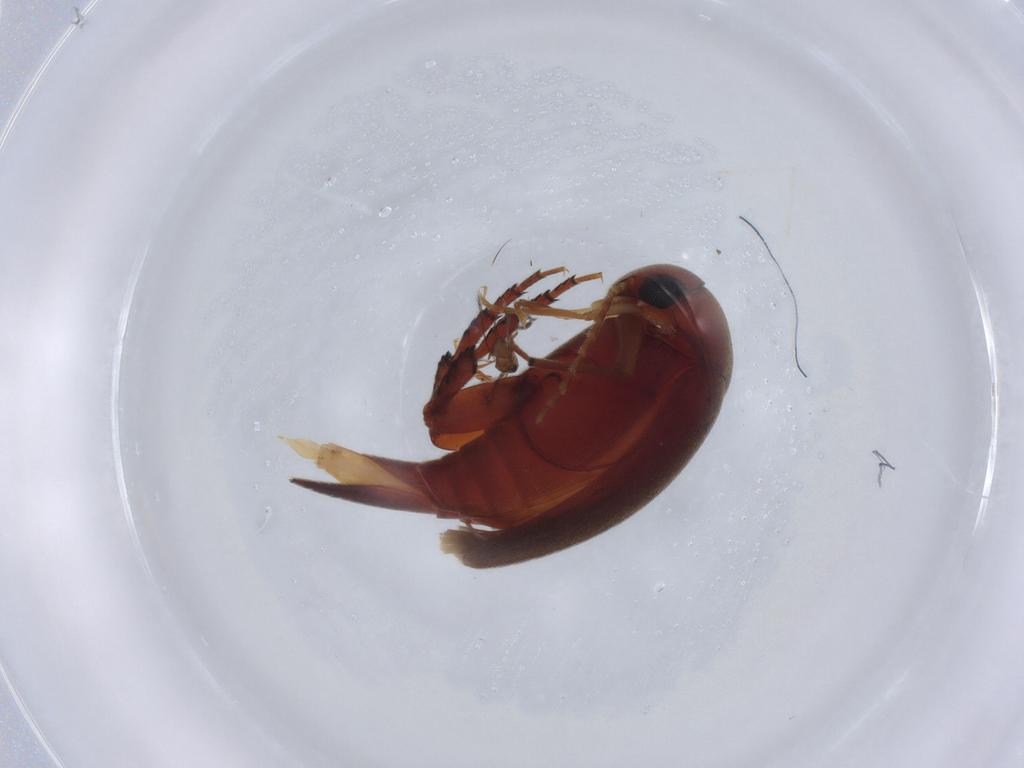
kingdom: Animalia
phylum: Arthropoda
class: Insecta
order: Coleoptera
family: Mordellidae
